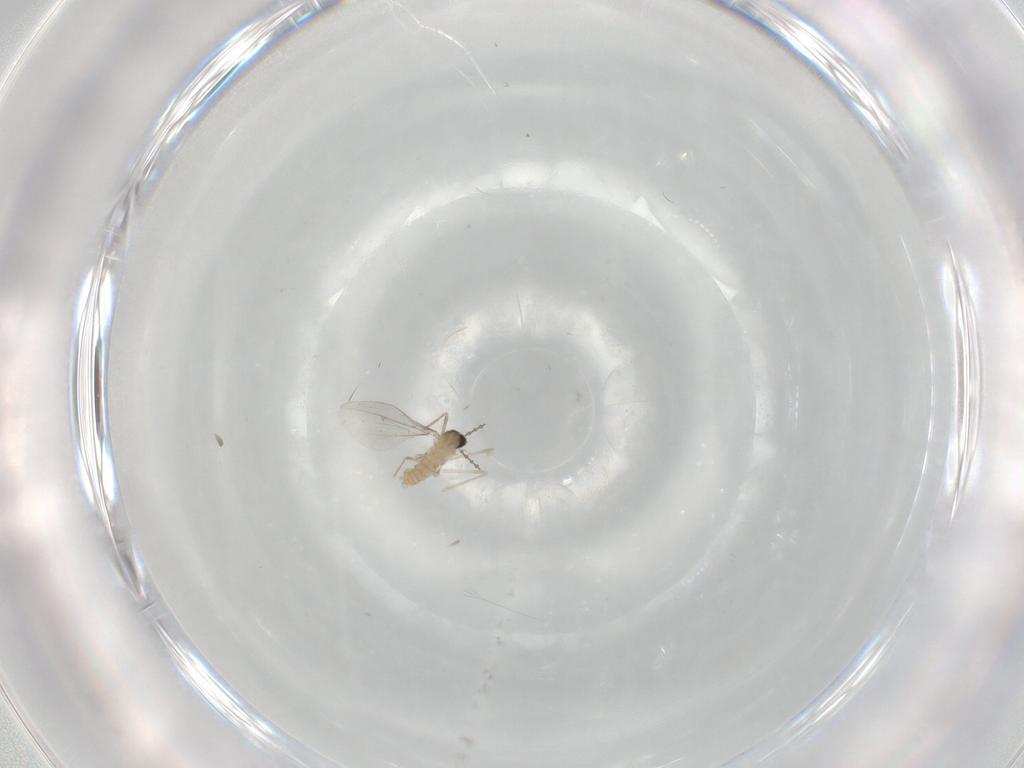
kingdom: Animalia
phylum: Arthropoda
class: Insecta
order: Diptera
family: Cecidomyiidae
